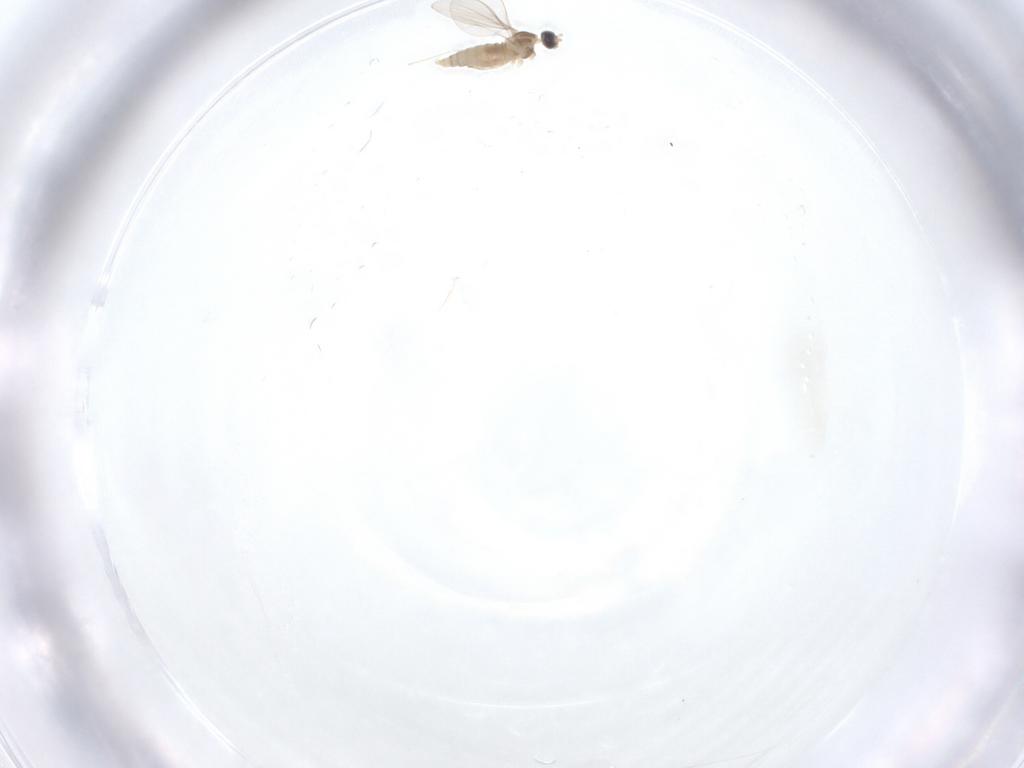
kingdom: Animalia
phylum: Arthropoda
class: Insecta
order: Diptera
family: Cecidomyiidae
